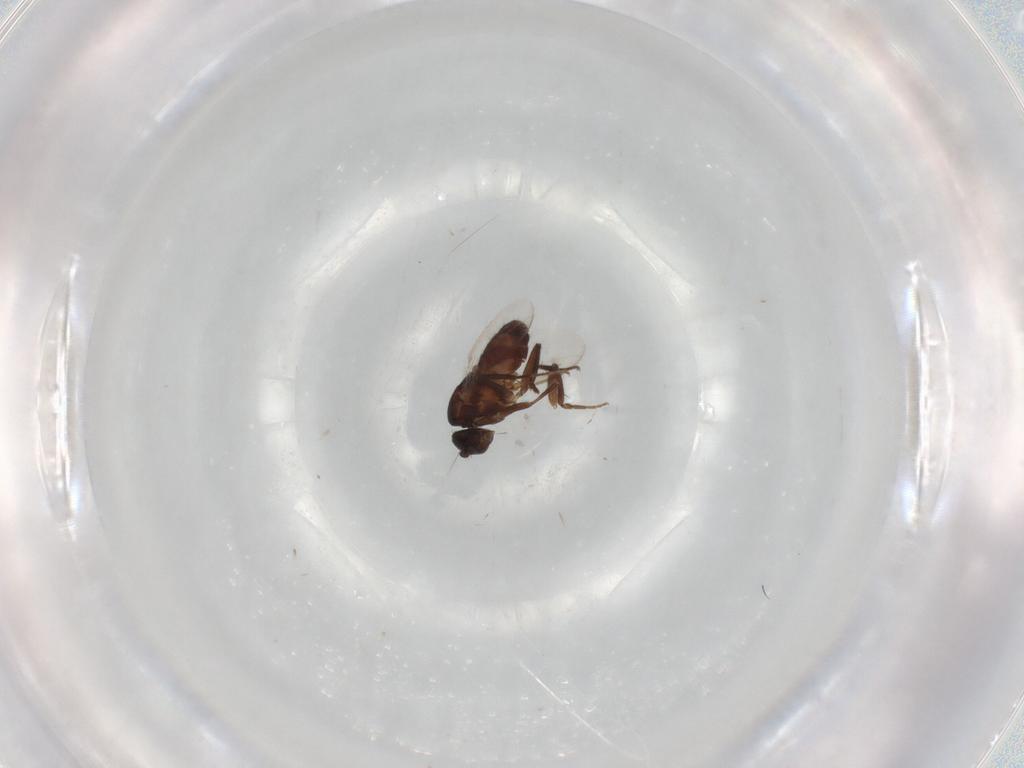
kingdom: Animalia
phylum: Arthropoda
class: Insecta
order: Diptera
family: Sphaeroceridae
